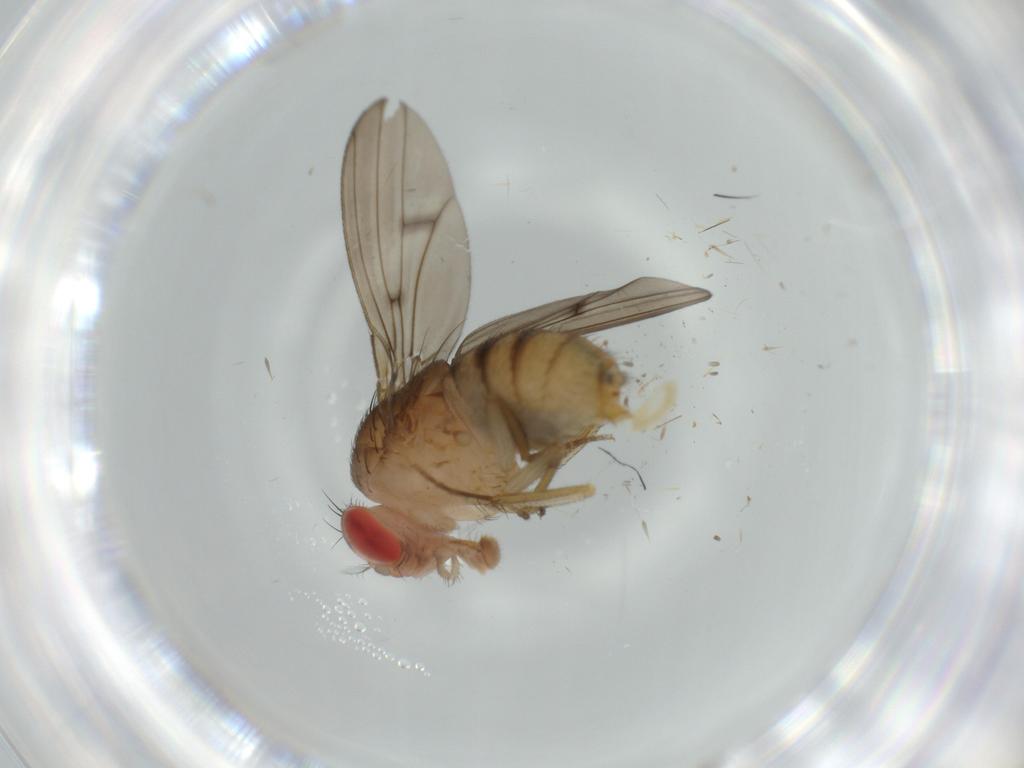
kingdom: Animalia
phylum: Arthropoda
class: Insecta
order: Diptera
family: Drosophilidae
